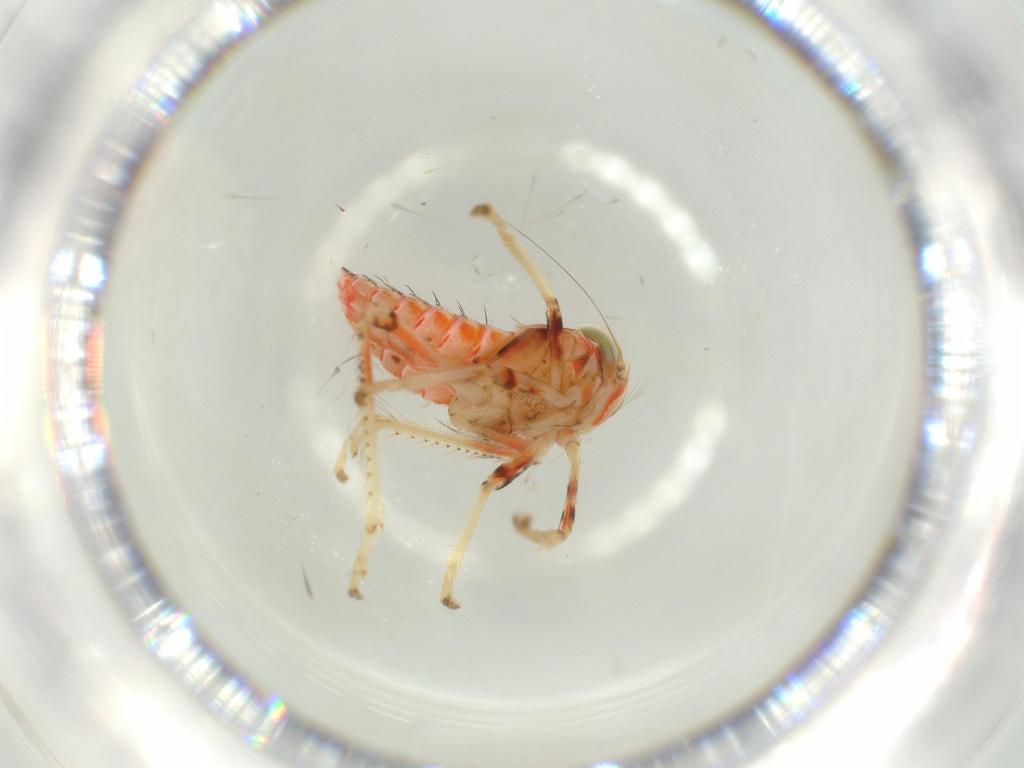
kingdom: Animalia
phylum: Arthropoda
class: Insecta
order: Hemiptera
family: Cicadellidae
